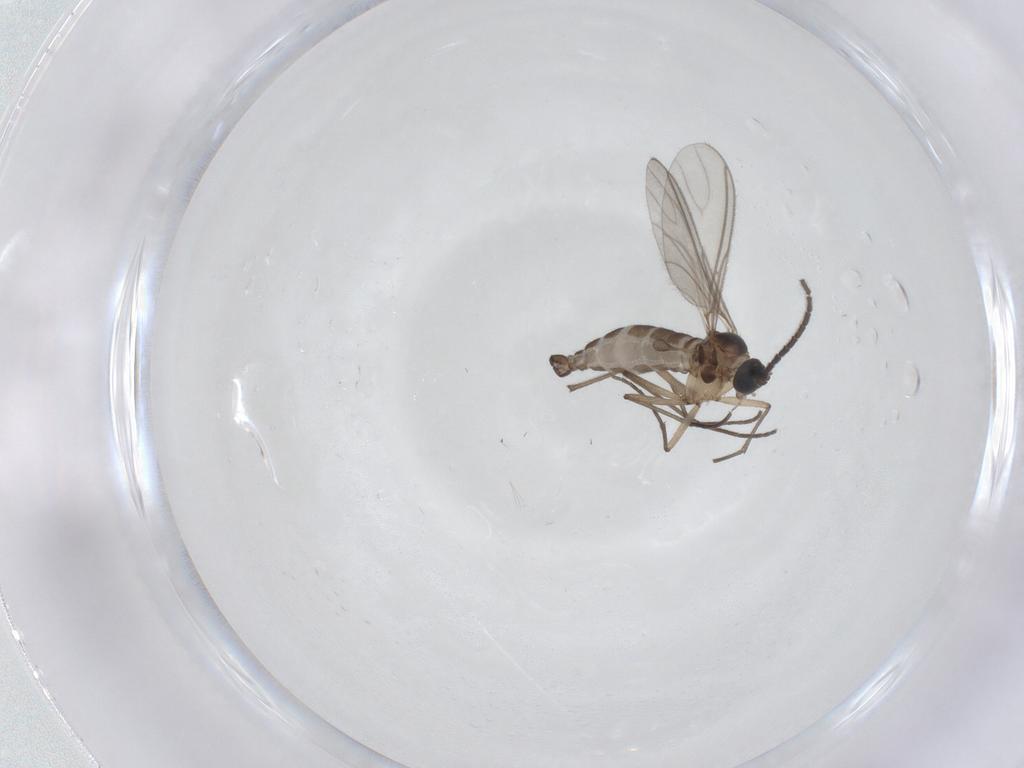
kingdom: Animalia
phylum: Arthropoda
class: Insecta
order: Diptera
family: Sciaridae
